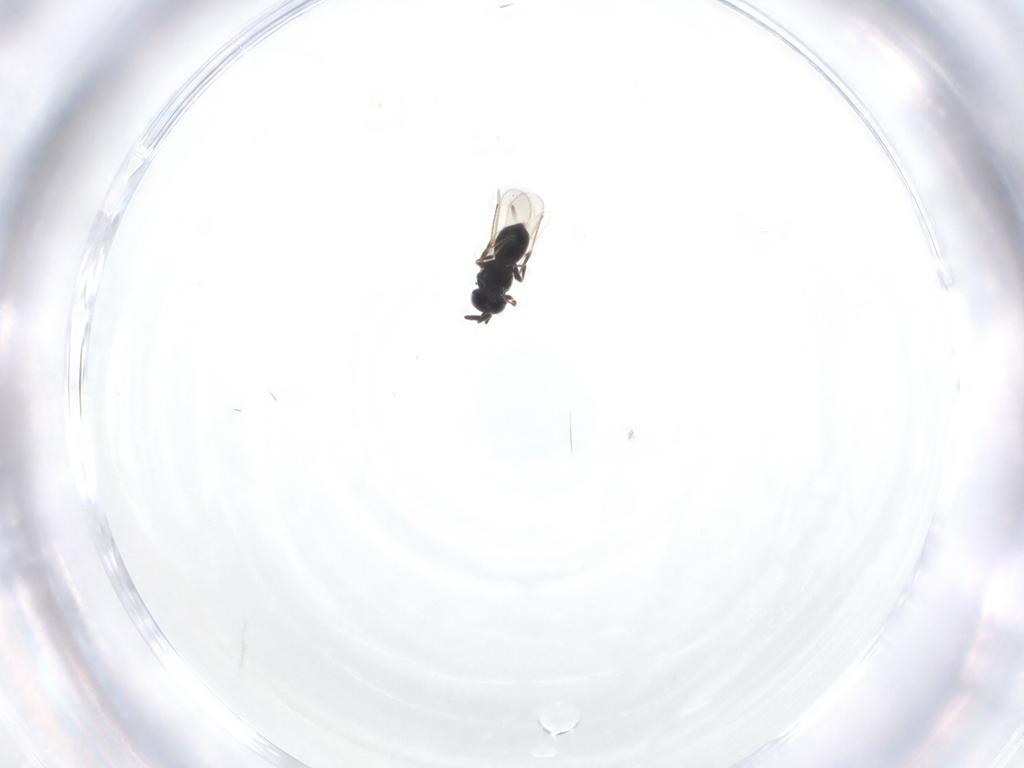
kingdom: Animalia
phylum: Arthropoda
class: Insecta
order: Hymenoptera
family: Scelionidae
